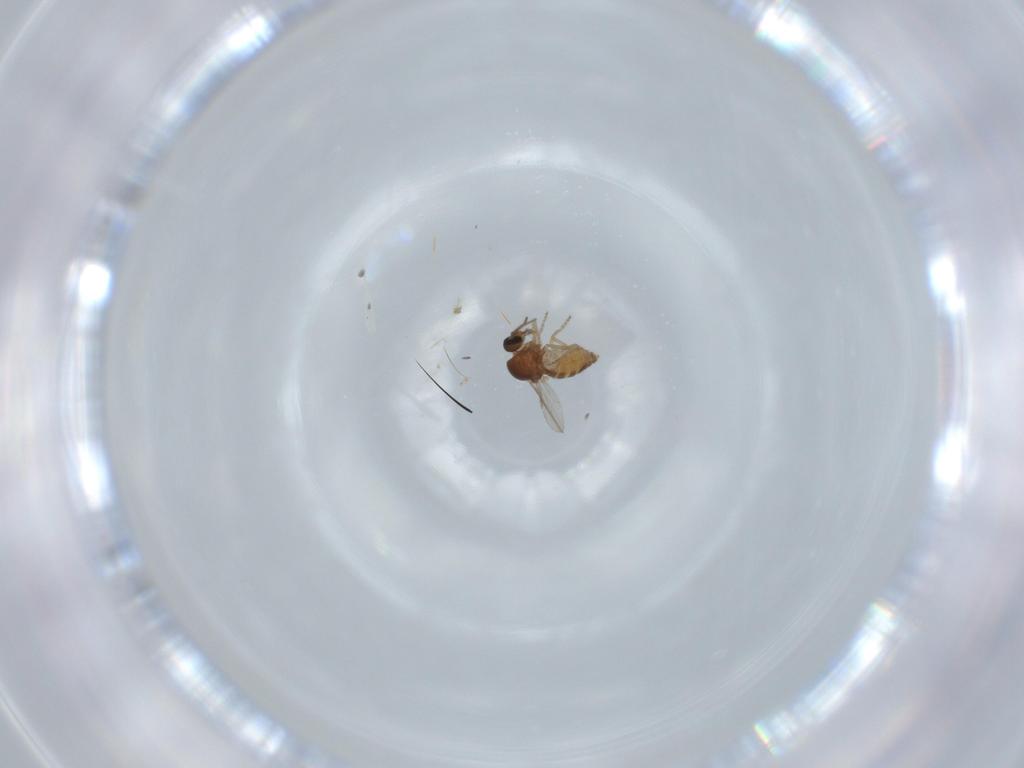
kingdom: Animalia
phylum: Arthropoda
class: Insecta
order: Diptera
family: Ceratopogonidae
